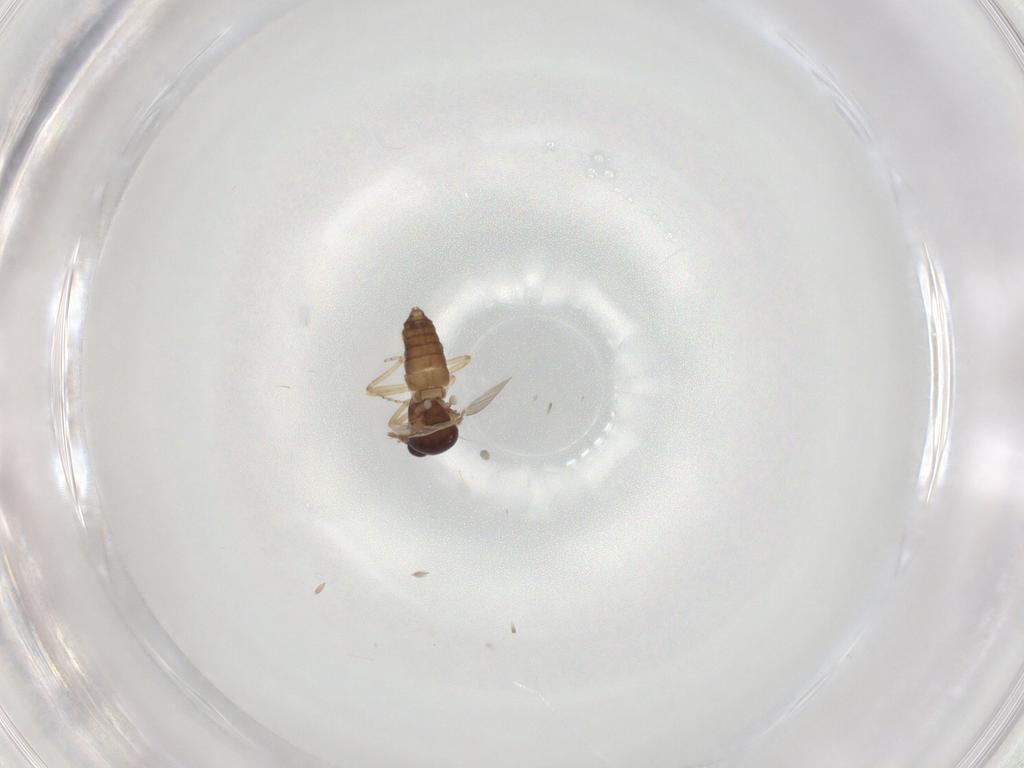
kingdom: Animalia
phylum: Arthropoda
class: Insecta
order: Diptera
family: Ceratopogonidae
